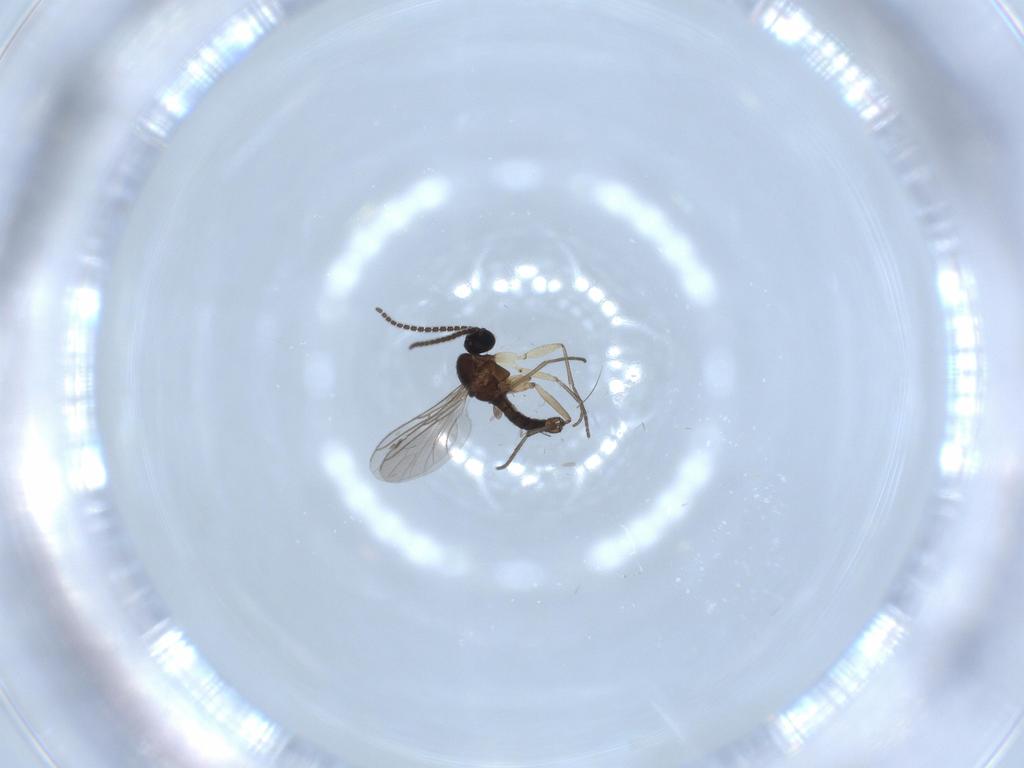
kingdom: Animalia
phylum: Arthropoda
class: Insecta
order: Diptera
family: Sciaridae
